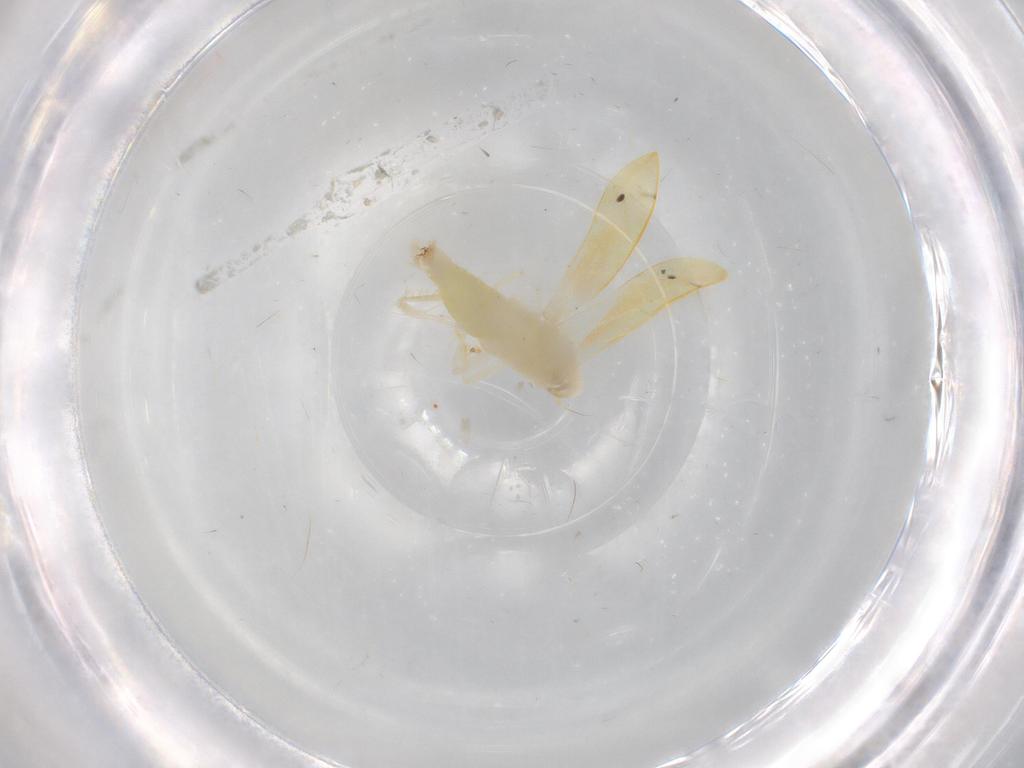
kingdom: Animalia
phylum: Arthropoda
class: Insecta
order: Hemiptera
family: Cicadellidae
